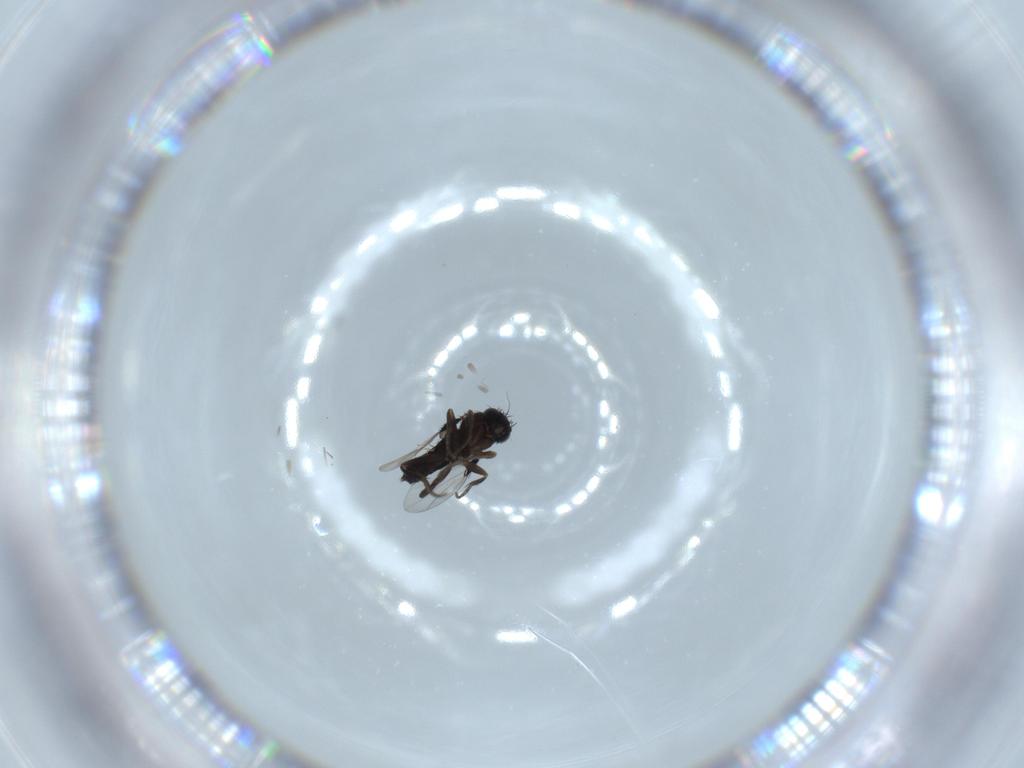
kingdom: Animalia
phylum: Arthropoda
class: Insecta
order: Diptera
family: Phoridae
